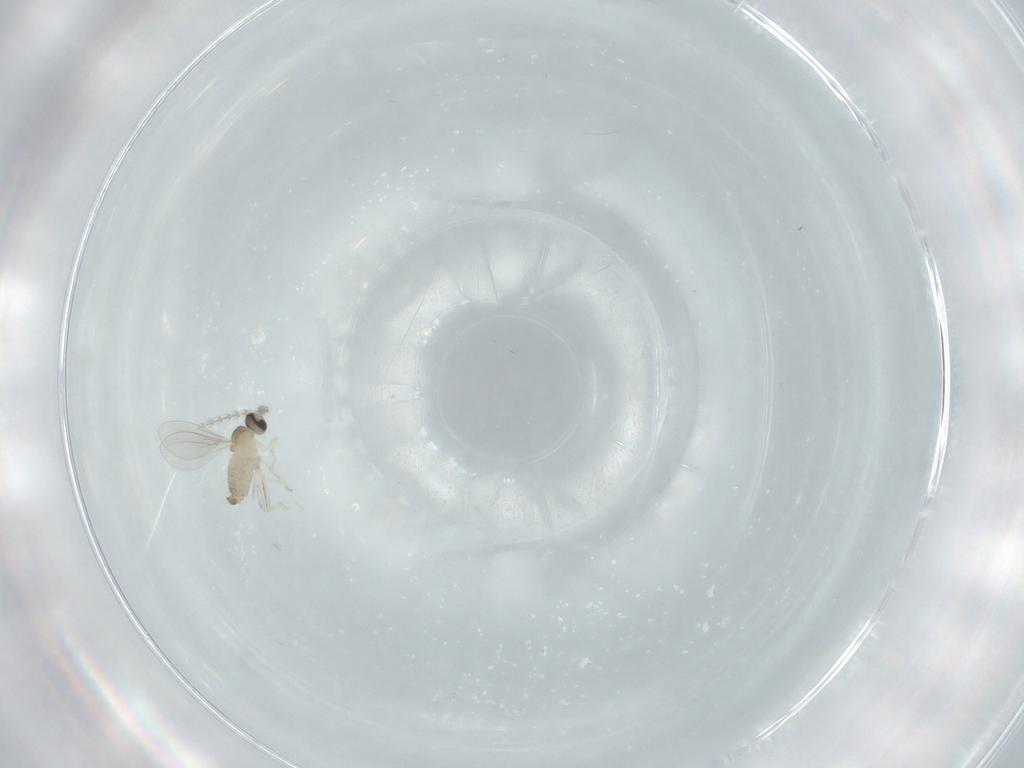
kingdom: Animalia
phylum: Arthropoda
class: Insecta
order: Diptera
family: Cecidomyiidae
